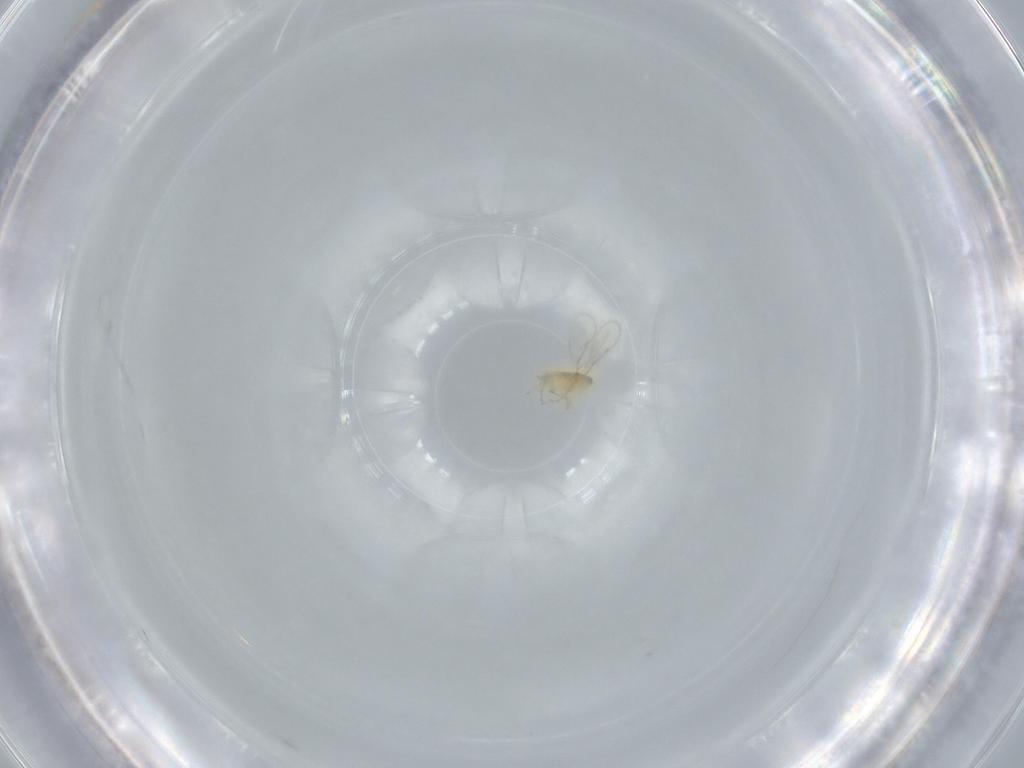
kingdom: Animalia
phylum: Arthropoda
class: Insecta
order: Hymenoptera
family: Aphelinidae
